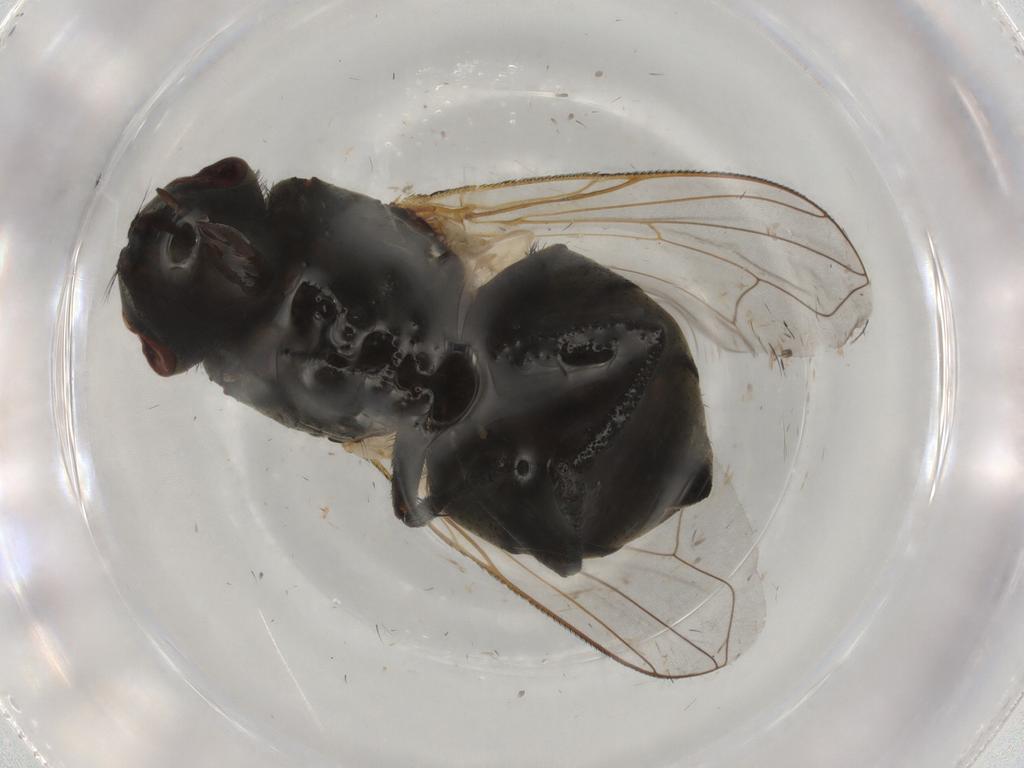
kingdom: Animalia
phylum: Arthropoda
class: Insecta
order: Diptera
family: Muscidae
